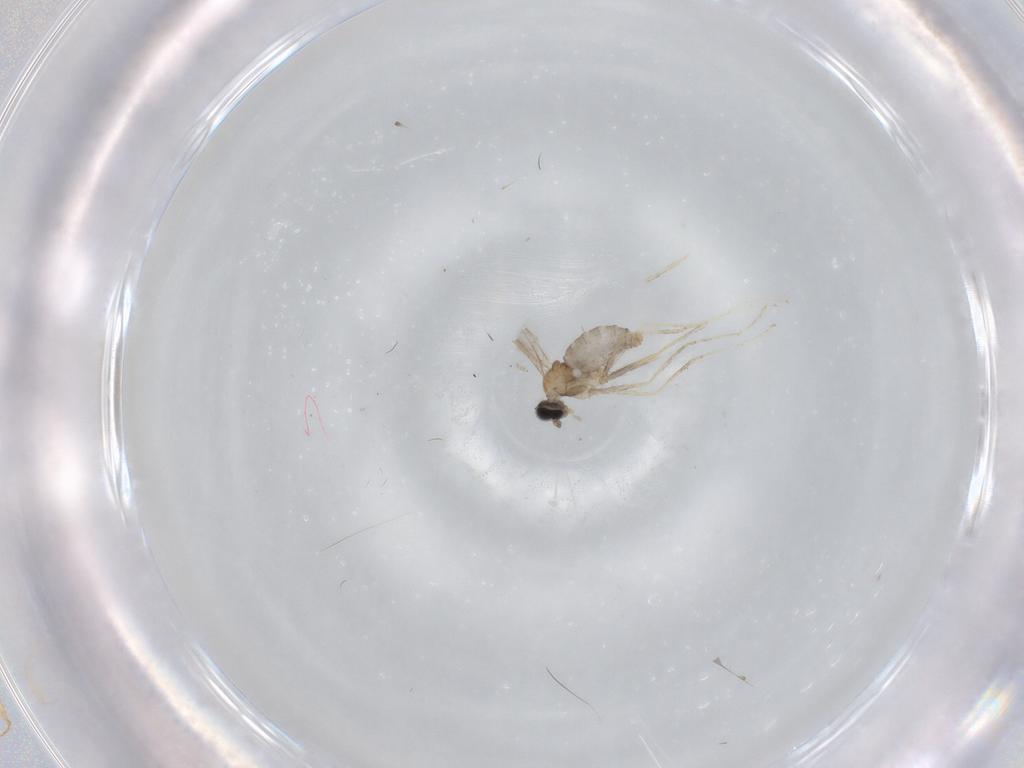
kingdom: Animalia
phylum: Arthropoda
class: Insecta
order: Diptera
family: Cecidomyiidae
